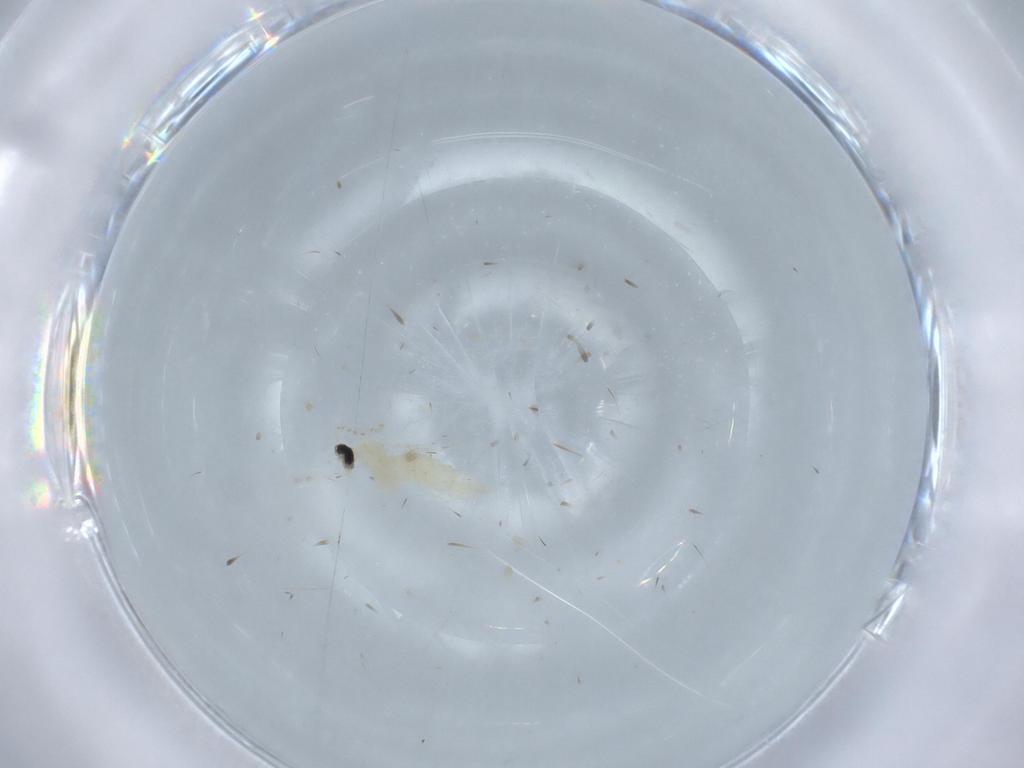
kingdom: Animalia
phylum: Arthropoda
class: Insecta
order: Diptera
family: Cecidomyiidae
